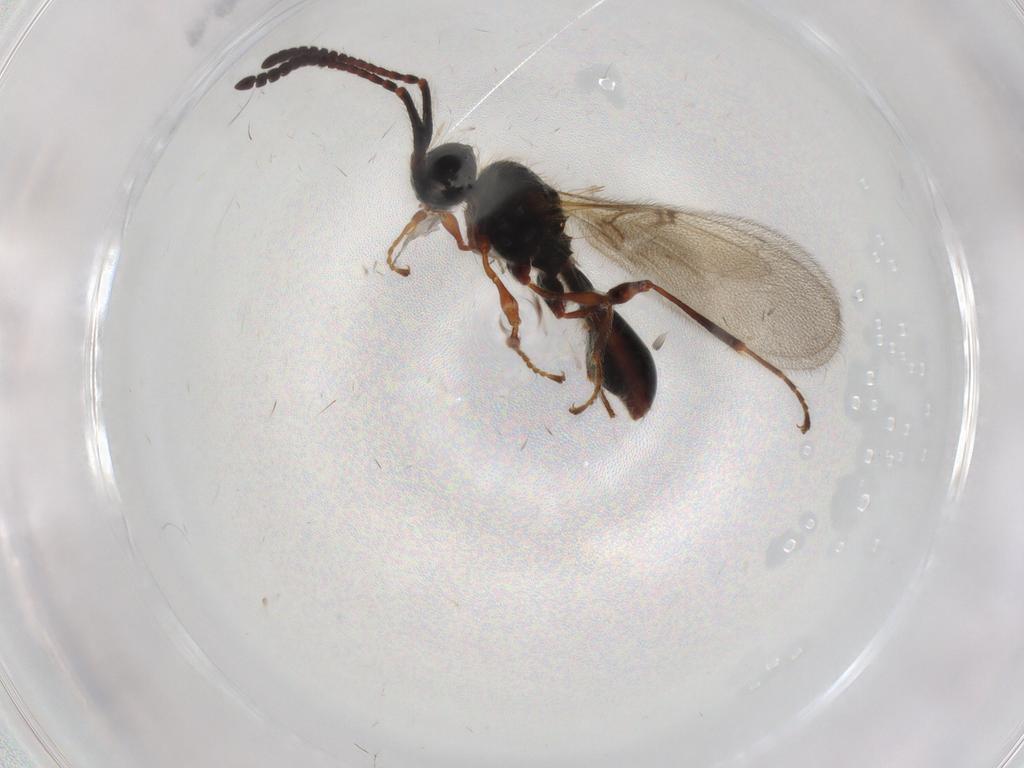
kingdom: Animalia
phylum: Arthropoda
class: Insecta
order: Hymenoptera
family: Diapriidae
